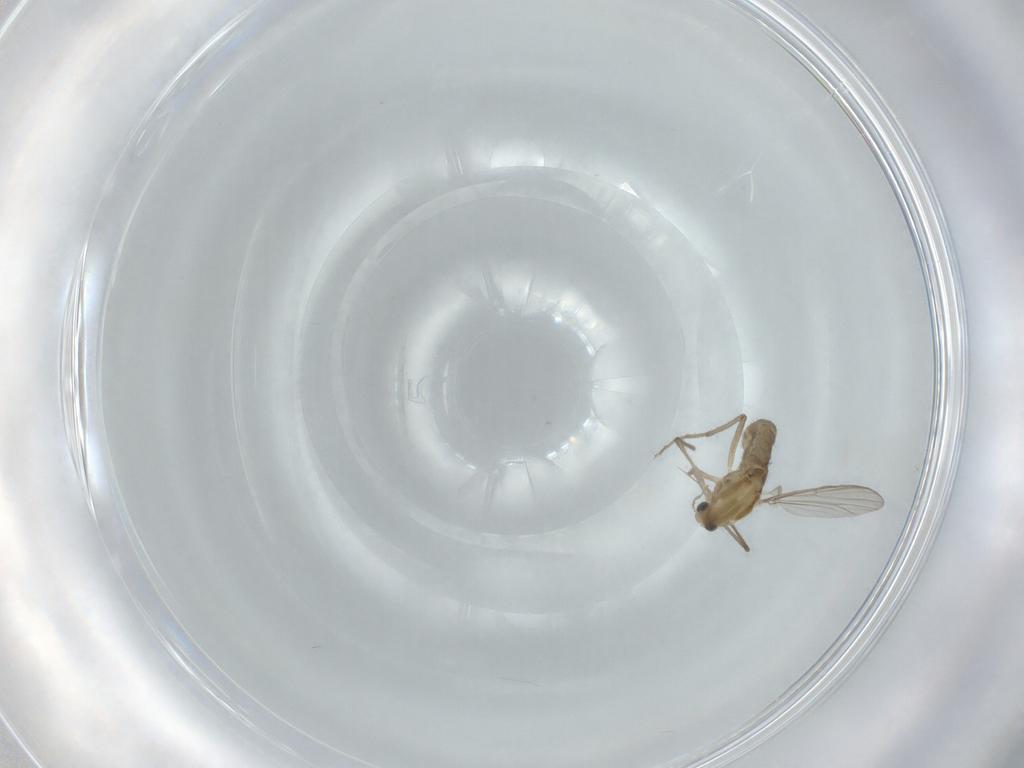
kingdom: Animalia
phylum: Arthropoda
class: Insecta
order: Diptera
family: Chironomidae
